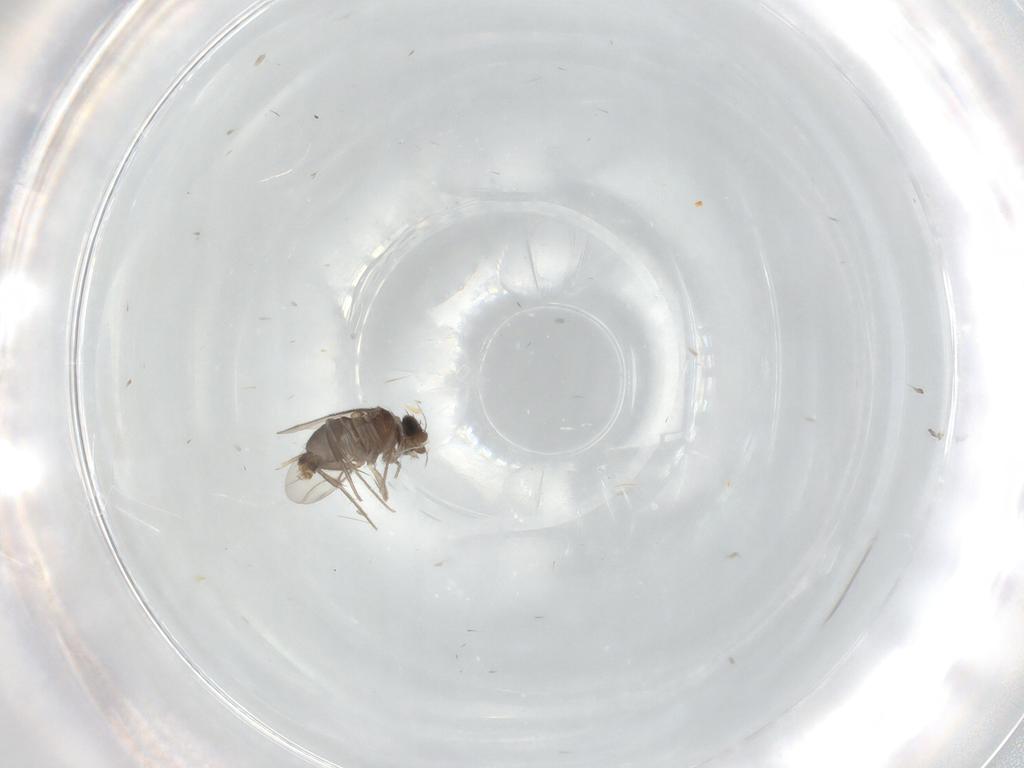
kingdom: Animalia
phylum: Arthropoda
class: Insecta
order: Diptera
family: Phoridae
